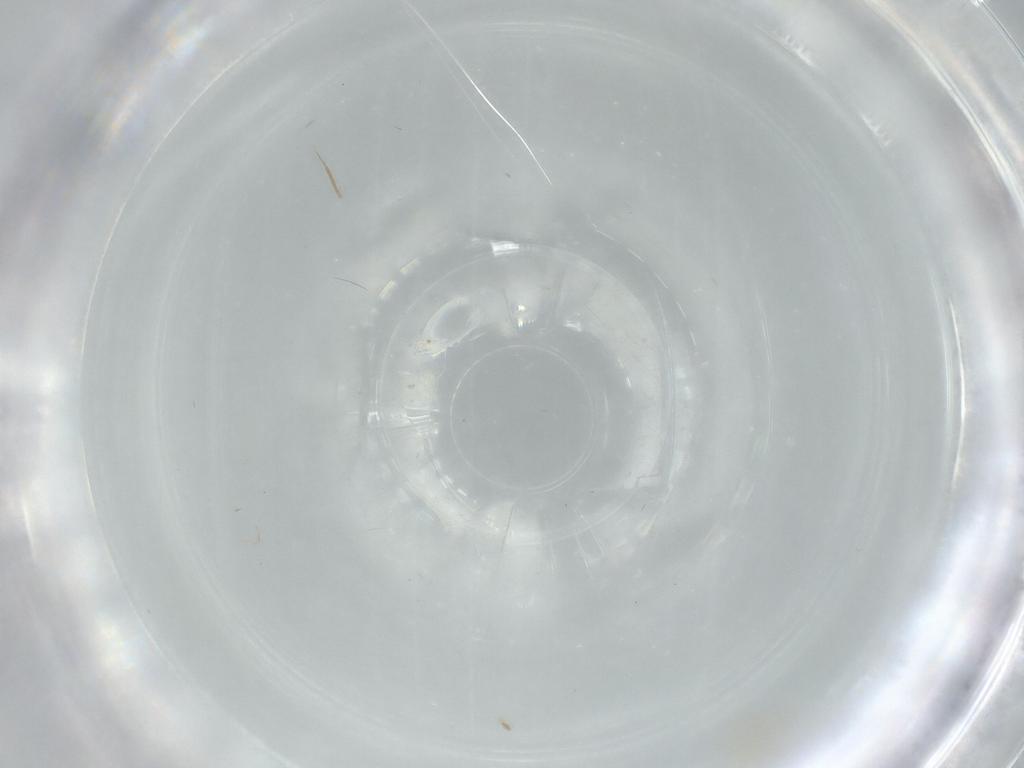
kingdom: Animalia
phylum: Arthropoda
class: Insecta
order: Hemiptera
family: Aleyrodidae
